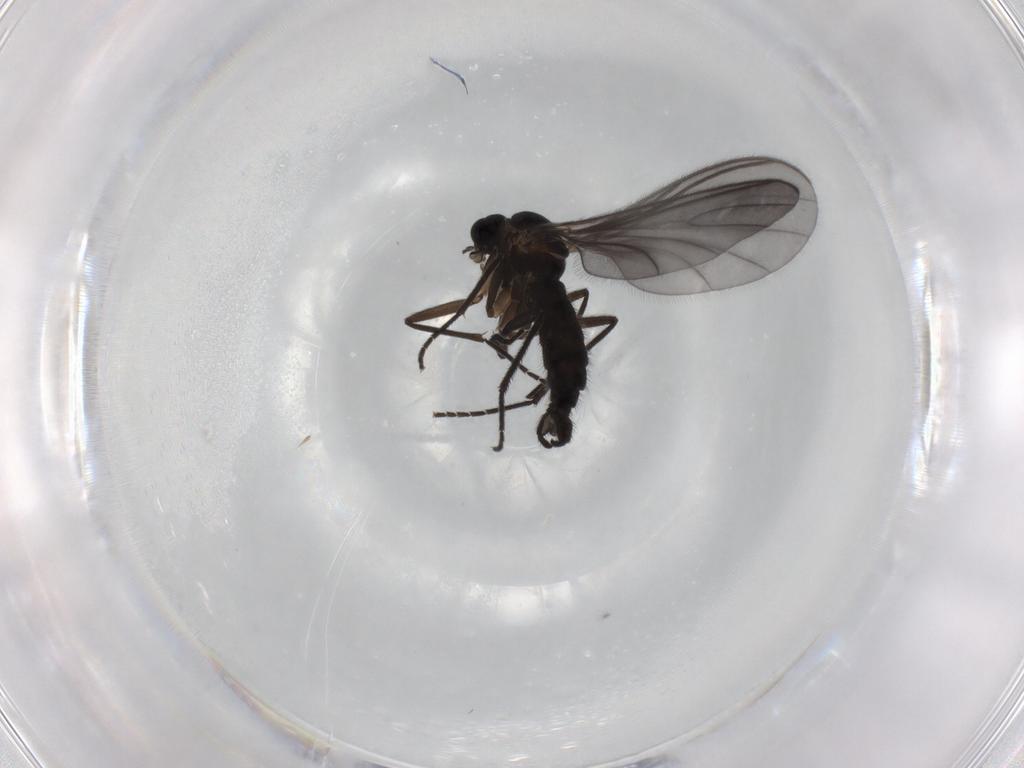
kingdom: Animalia
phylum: Arthropoda
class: Insecta
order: Diptera
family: Sciaridae
